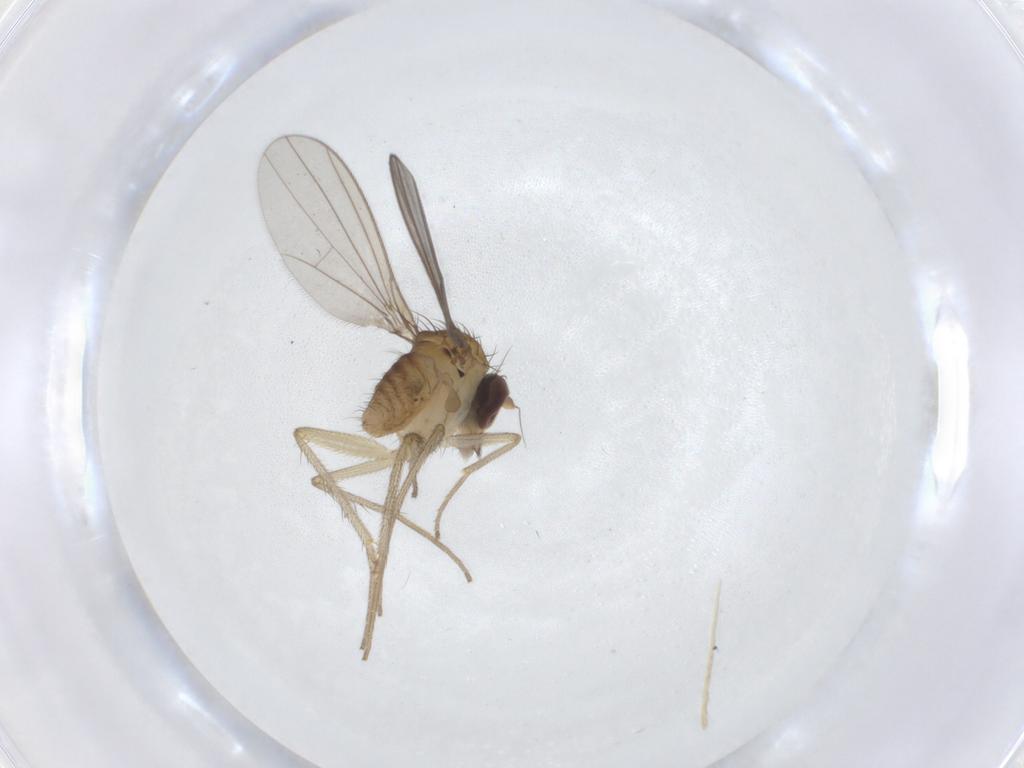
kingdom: Animalia
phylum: Arthropoda
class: Insecta
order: Diptera
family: Dolichopodidae
